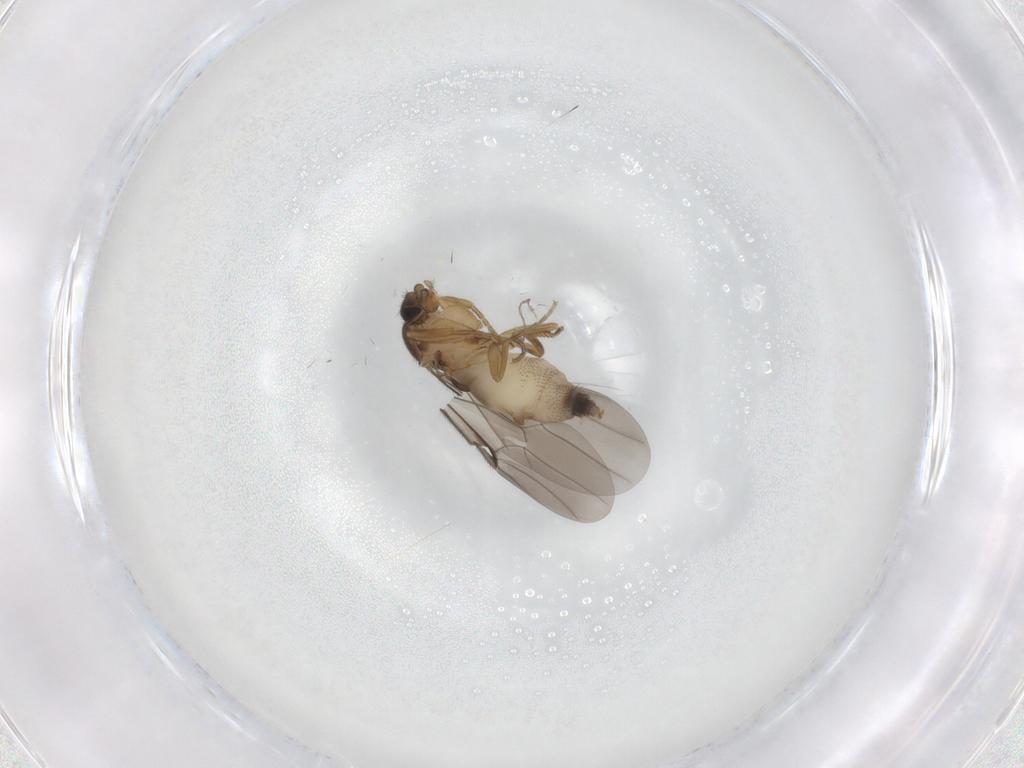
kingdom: Animalia
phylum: Arthropoda
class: Insecta
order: Diptera
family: Phoridae
